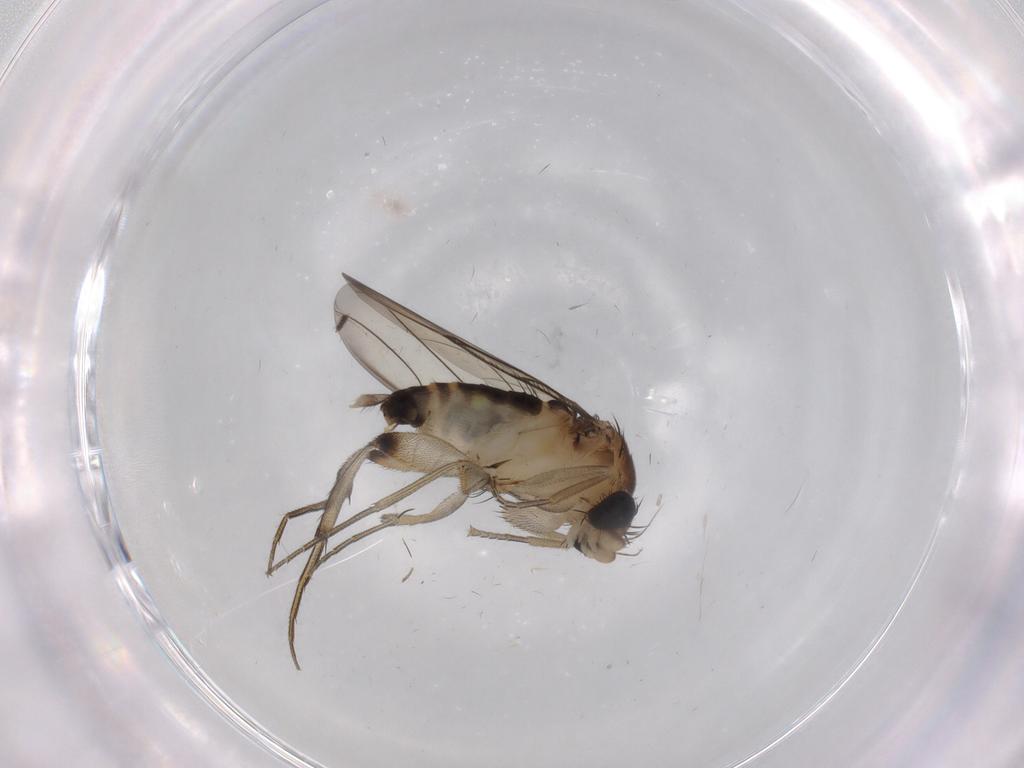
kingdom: Animalia
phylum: Arthropoda
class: Insecta
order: Diptera
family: Phoridae
